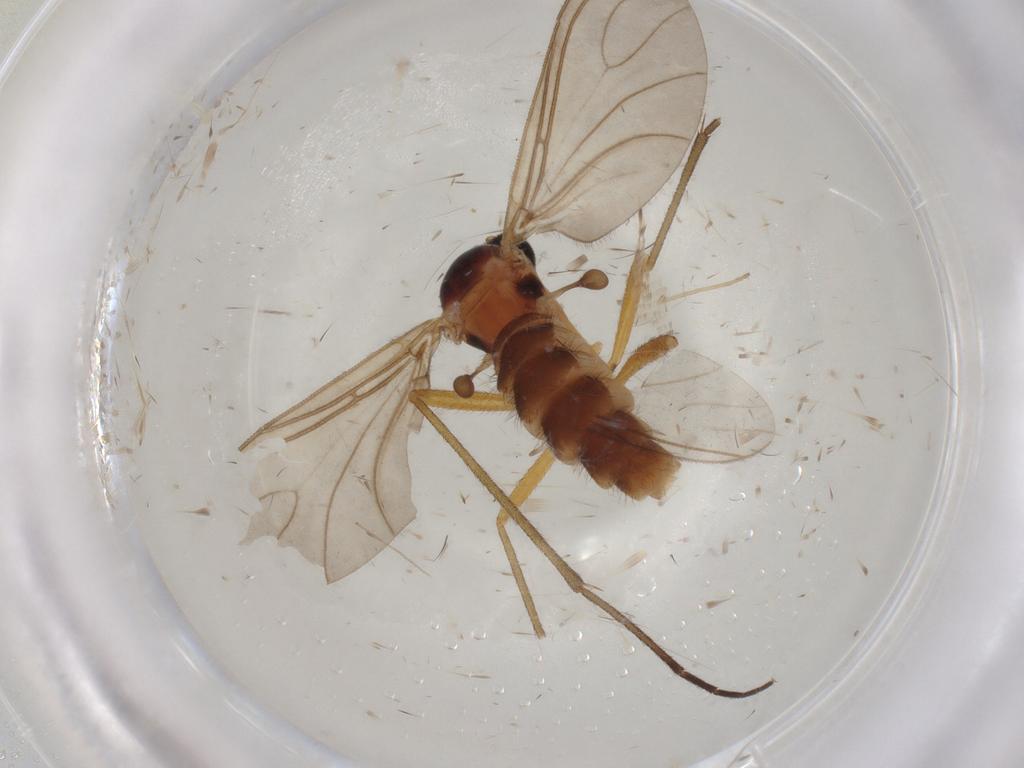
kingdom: Animalia
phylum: Arthropoda
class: Insecta
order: Diptera
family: Sciaridae
